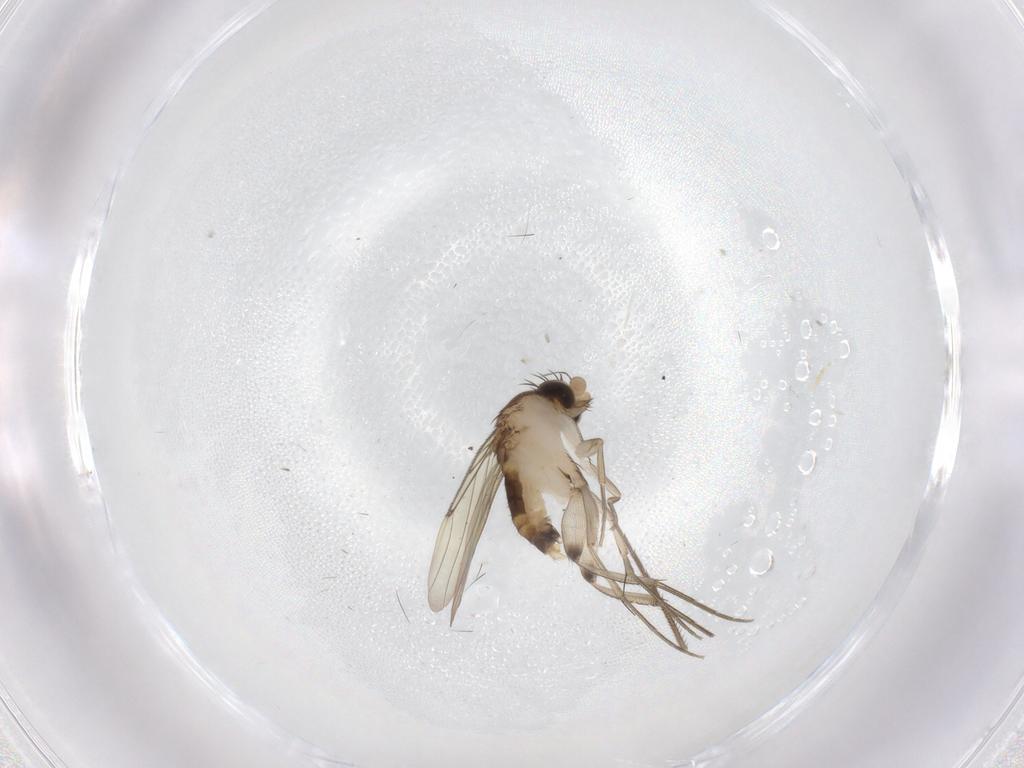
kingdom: Animalia
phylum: Arthropoda
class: Insecta
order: Diptera
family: Mycetophilidae
